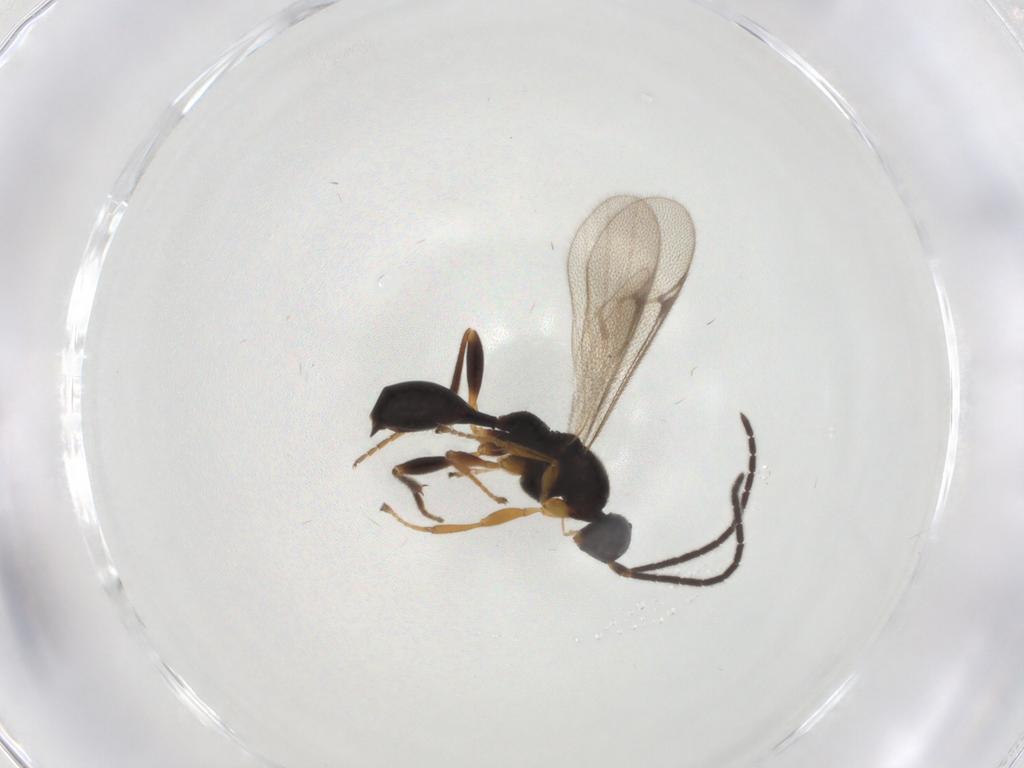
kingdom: Animalia
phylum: Arthropoda
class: Insecta
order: Hymenoptera
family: Proctotrupidae
